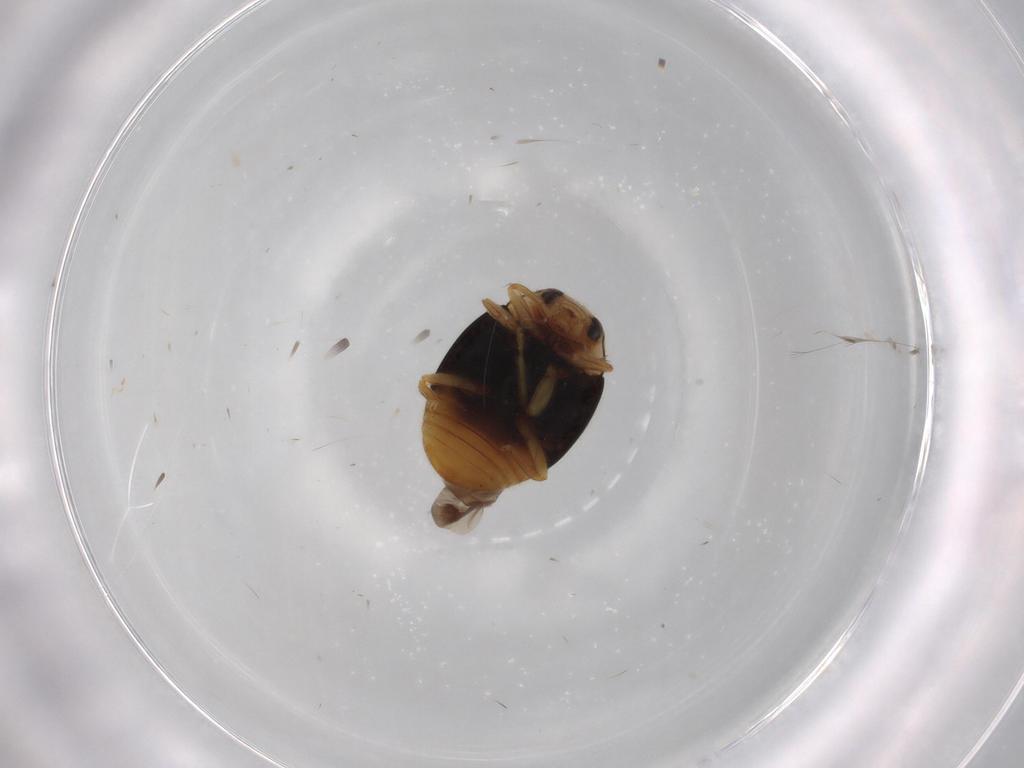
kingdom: Animalia
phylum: Arthropoda
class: Insecta
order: Coleoptera
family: Coccinellidae
